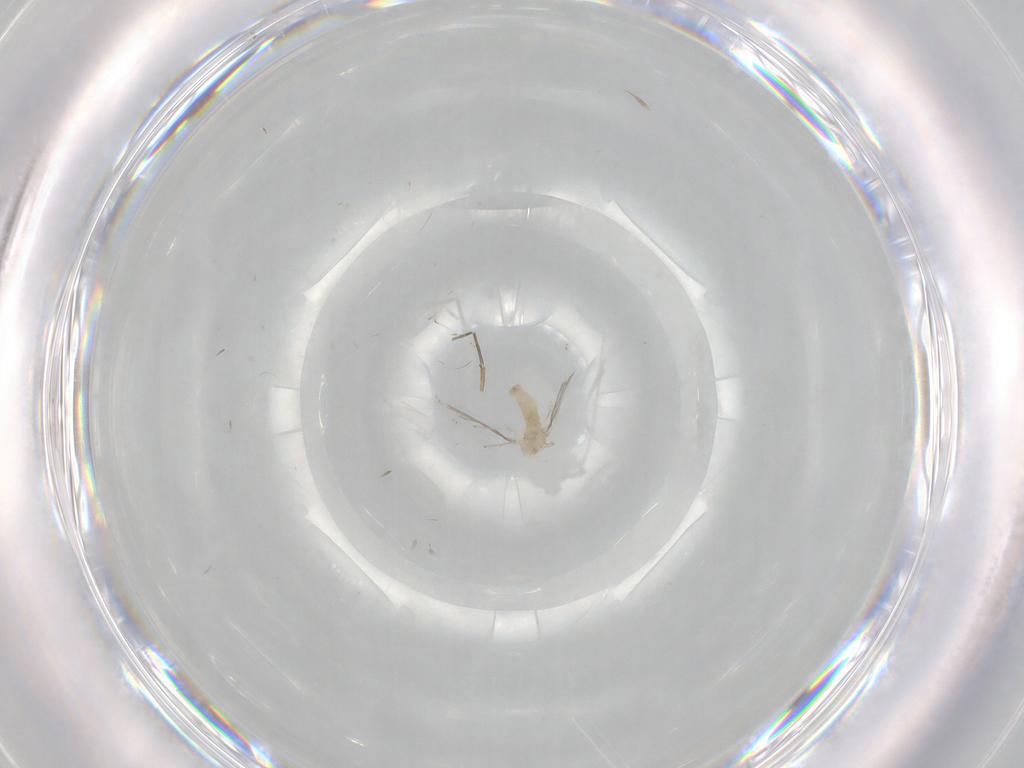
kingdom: Animalia
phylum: Arthropoda
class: Insecta
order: Diptera
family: Cecidomyiidae
